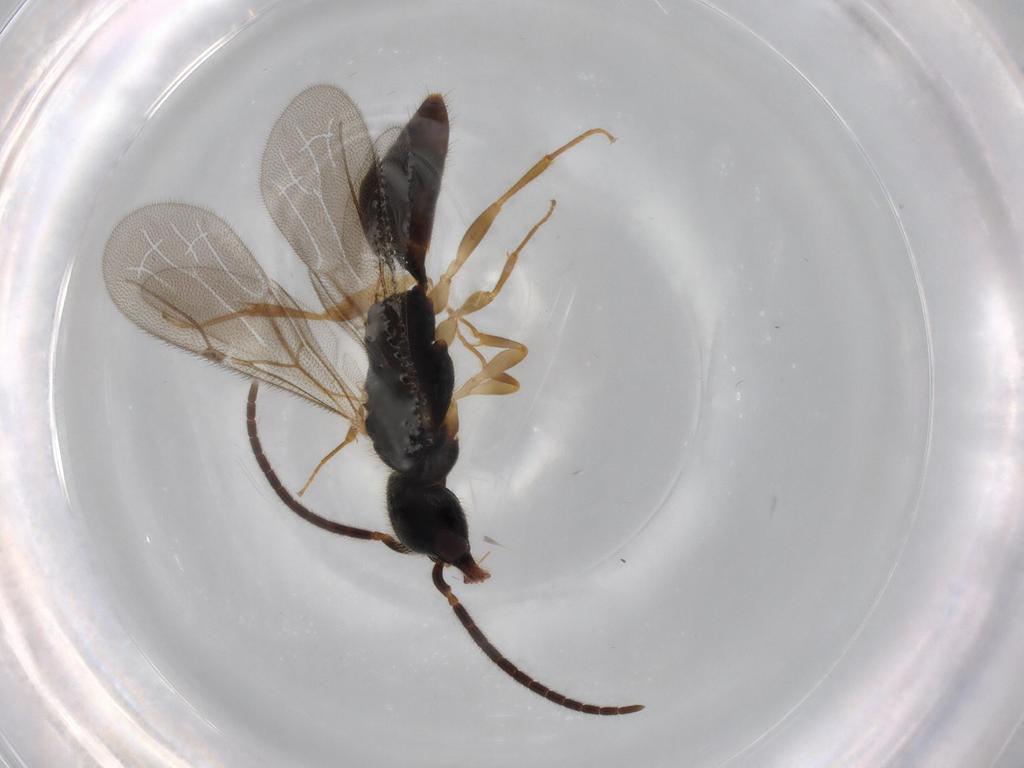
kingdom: Animalia
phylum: Arthropoda
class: Insecta
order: Hymenoptera
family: Bethylidae
